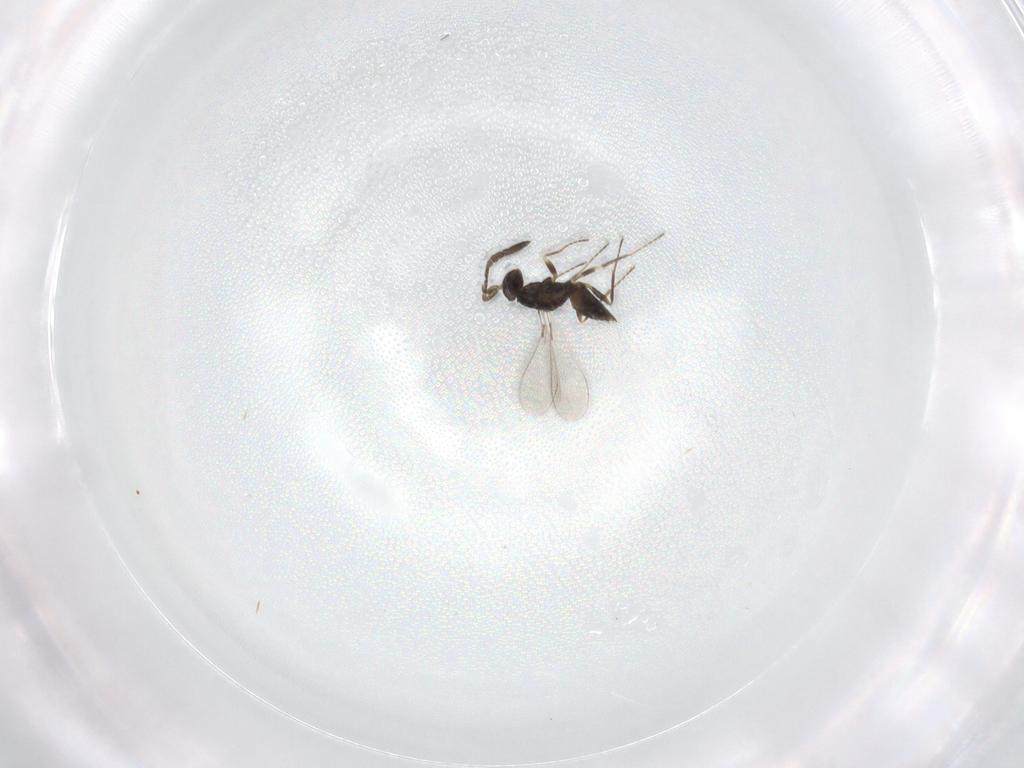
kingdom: Animalia
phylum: Arthropoda
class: Insecta
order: Hymenoptera
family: Mymaridae
